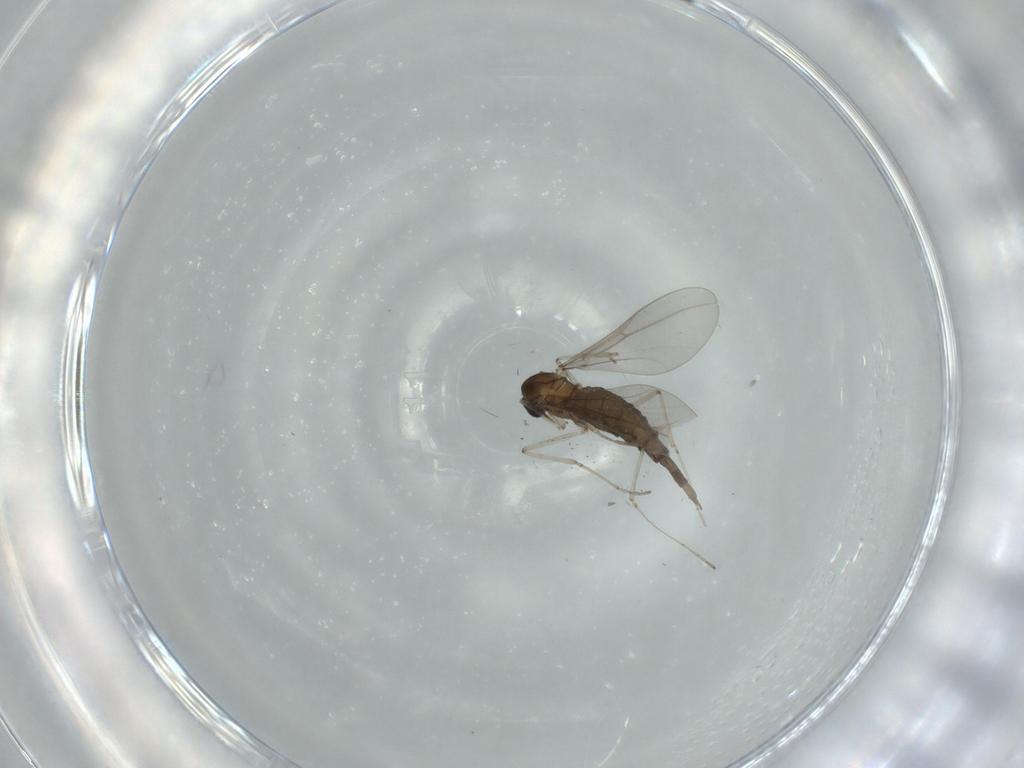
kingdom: Animalia
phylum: Arthropoda
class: Insecta
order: Diptera
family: Cecidomyiidae
